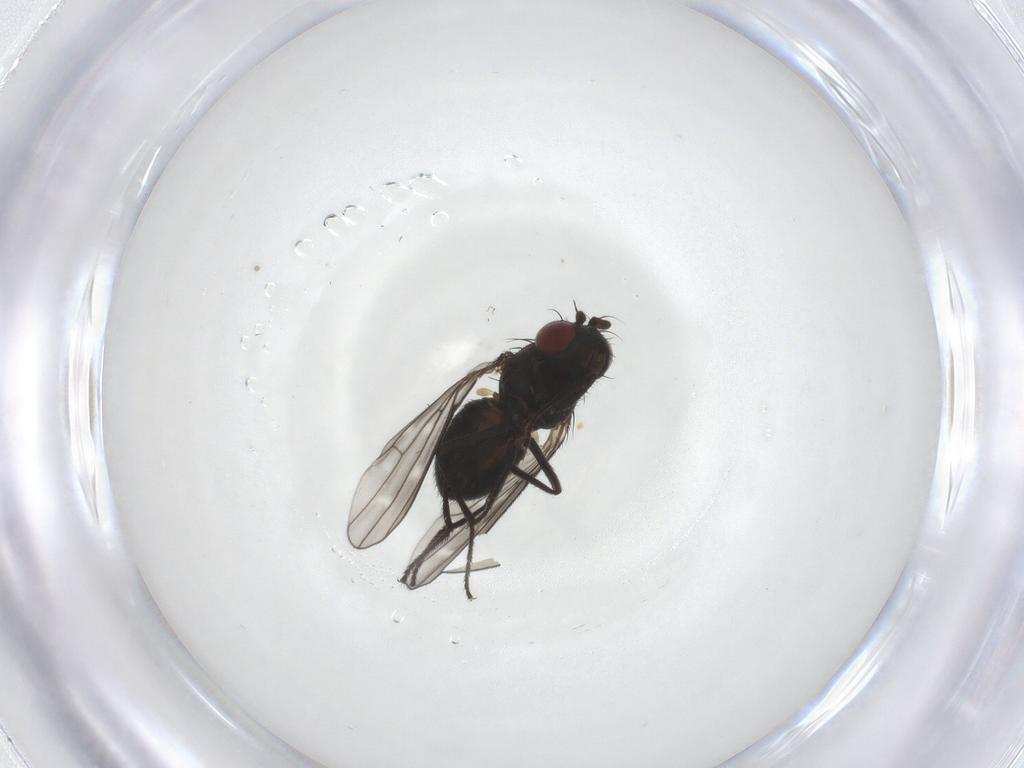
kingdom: Animalia
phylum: Arthropoda
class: Insecta
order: Diptera
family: Ephydridae
